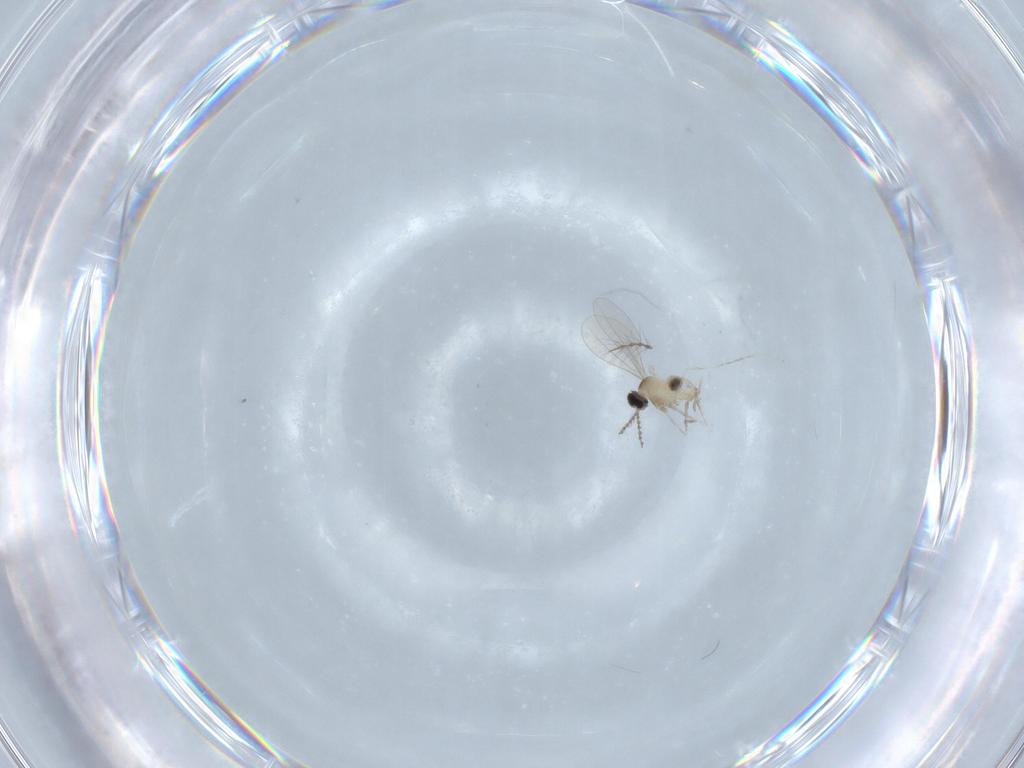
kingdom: Animalia
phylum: Arthropoda
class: Insecta
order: Diptera
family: Cecidomyiidae
